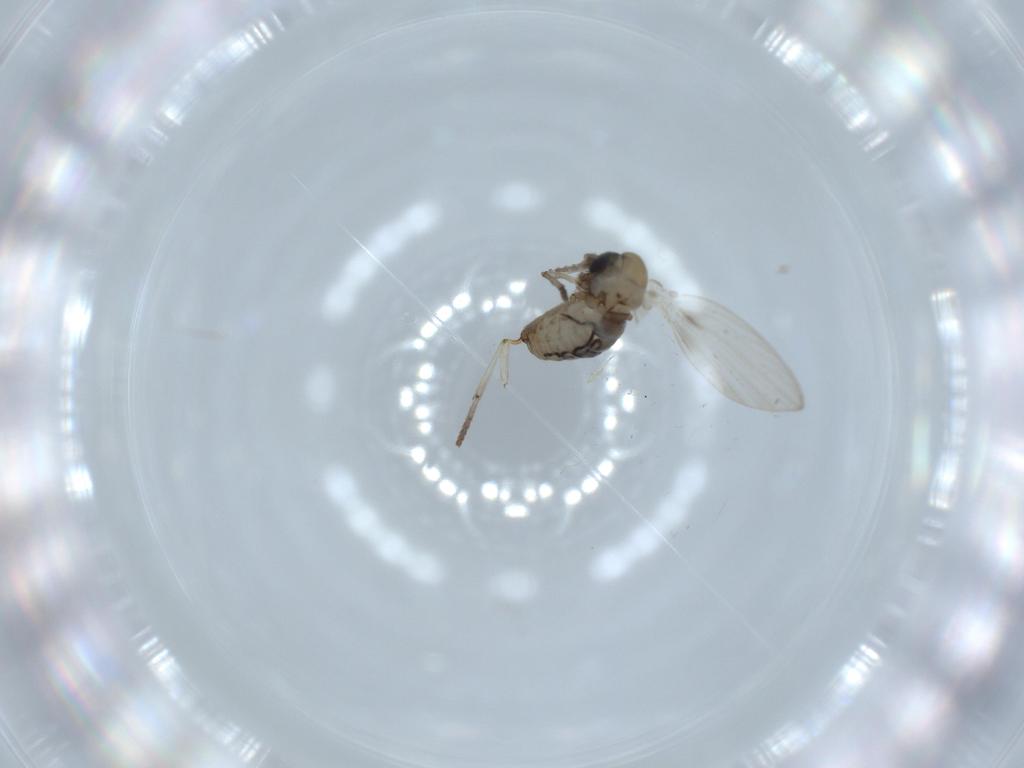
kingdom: Animalia
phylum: Arthropoda
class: Insecta
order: Diptera
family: Psychodidae
